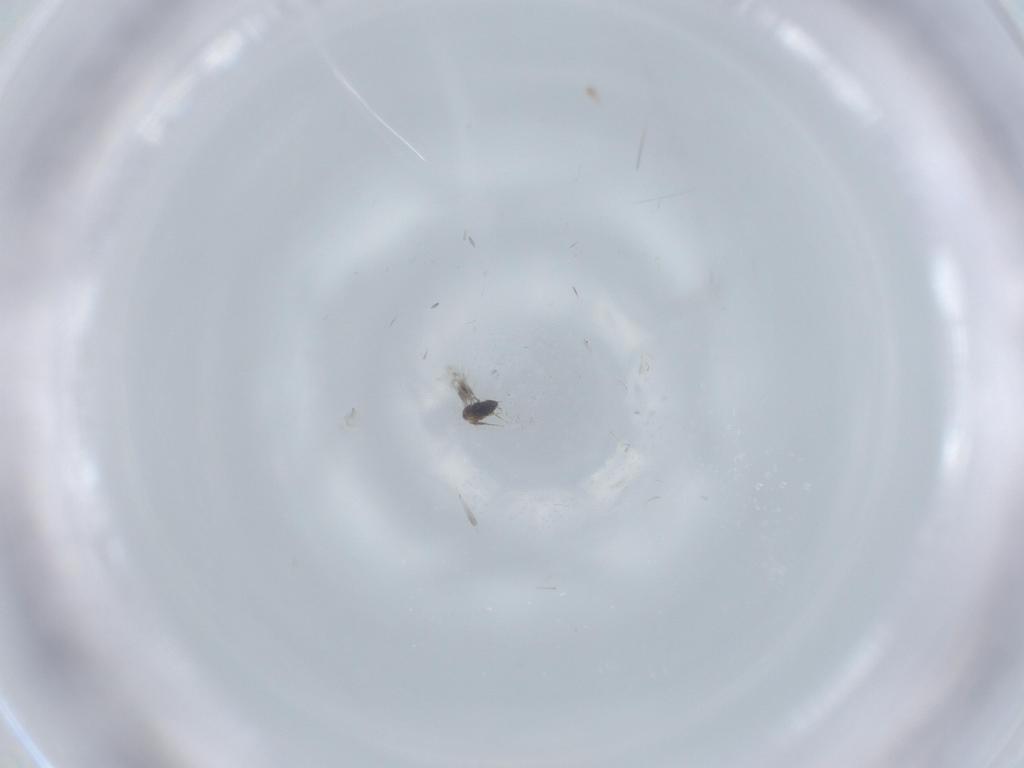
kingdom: Animalia
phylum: Arthropoda
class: Insecta
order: Hymenoptera
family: Signiphoridae
